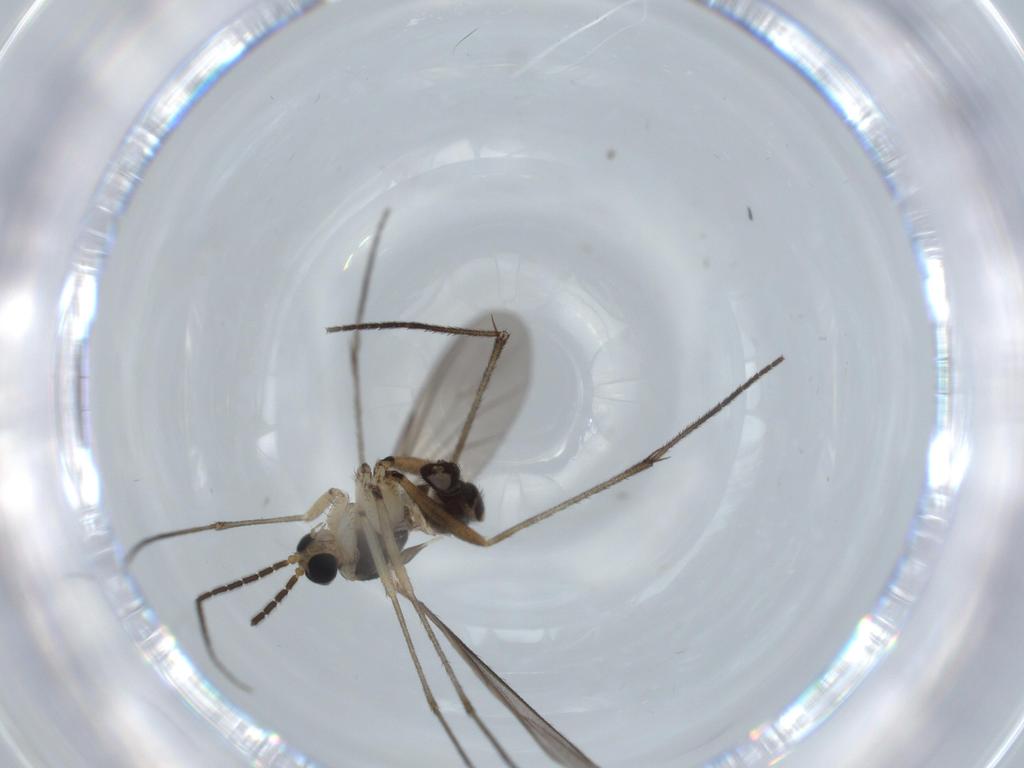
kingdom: Animalia
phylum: Arthropoda
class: Insecta
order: Diptera
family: Sciaridae
